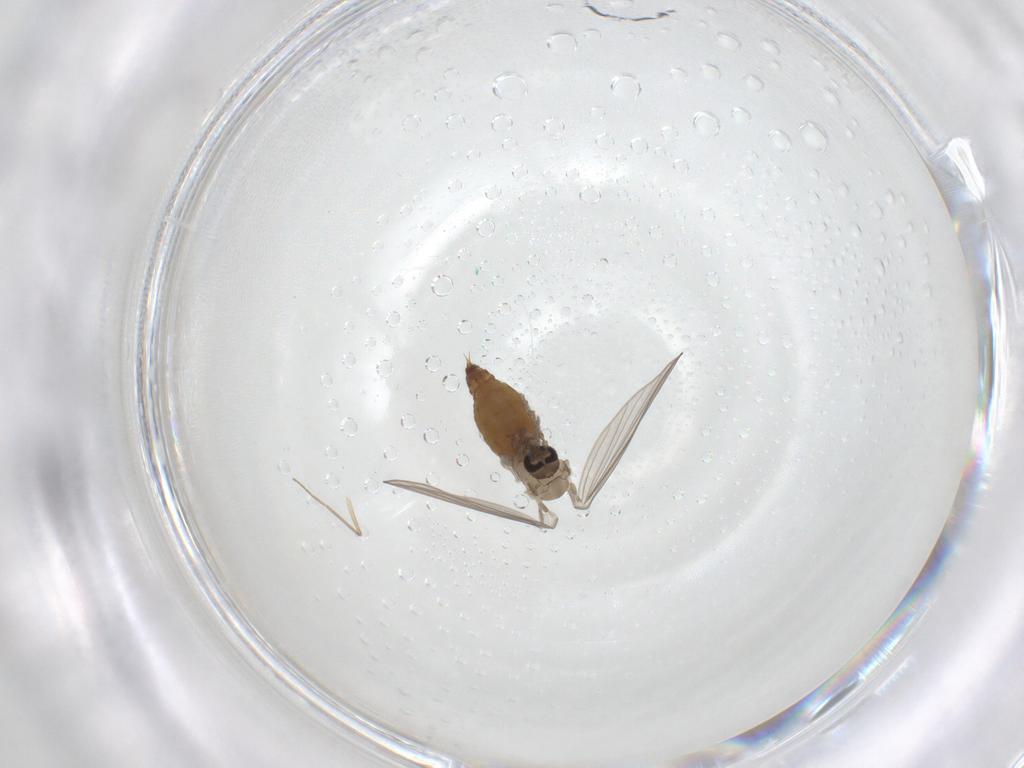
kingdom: Animalia
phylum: Arthropoda
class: Insecta
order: Diptera
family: Psychodidae
